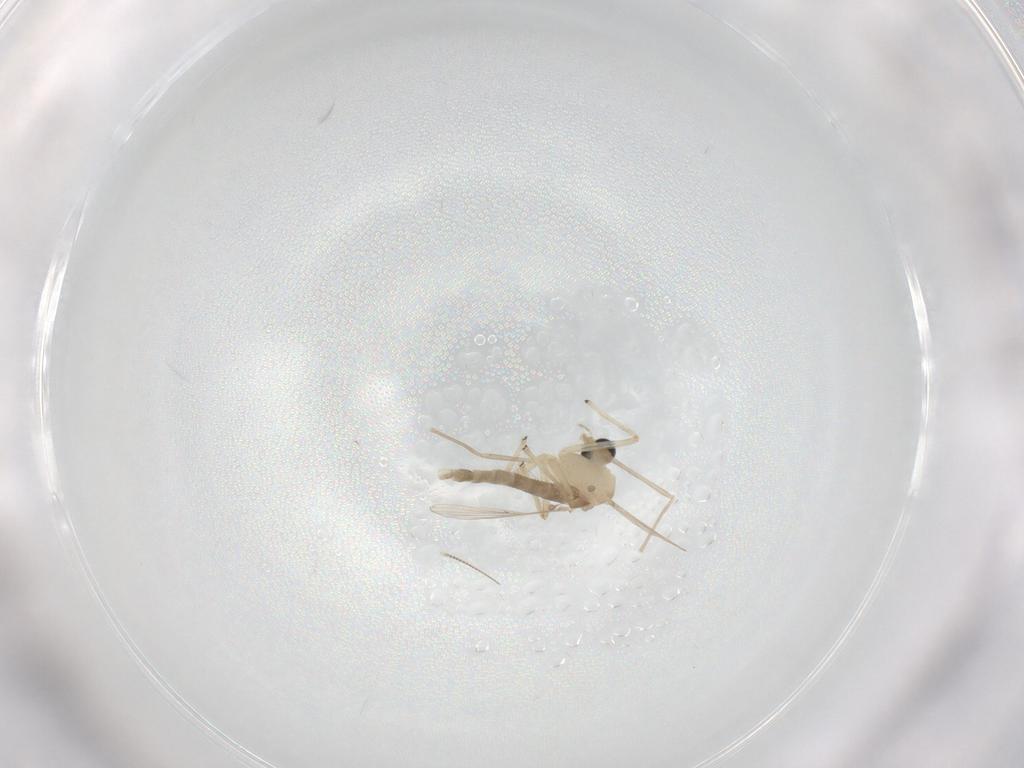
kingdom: Animalia
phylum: Arthropoda
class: Insecta
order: Diptera
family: Chironomidae
